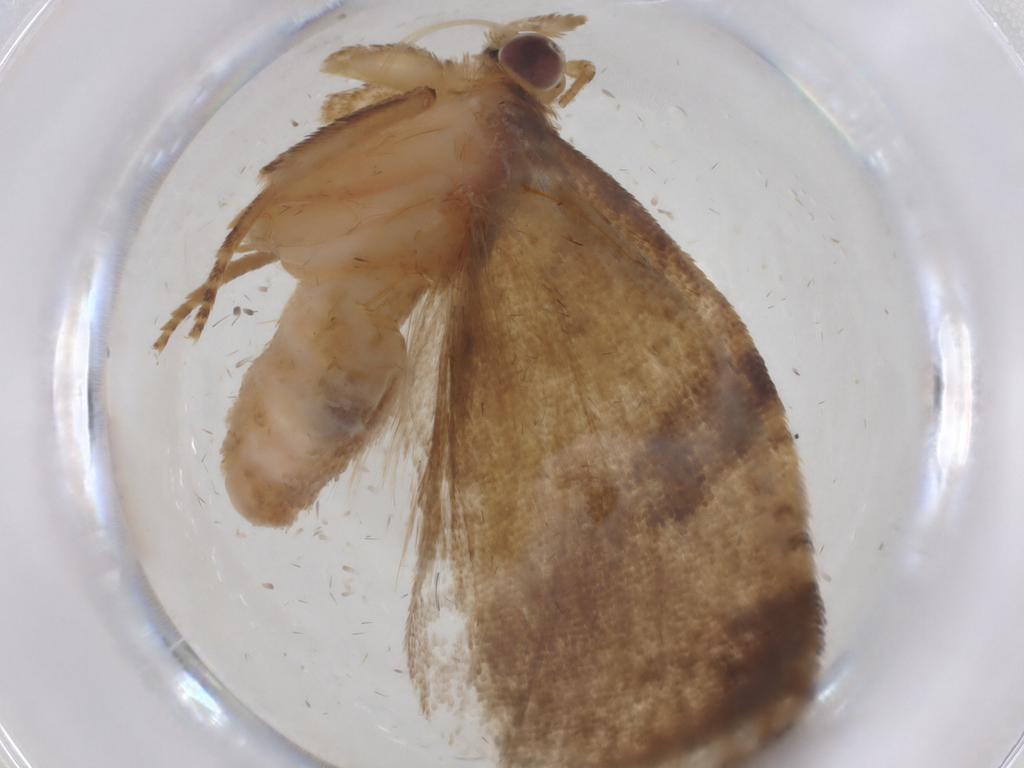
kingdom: Animalia
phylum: Arthropoda
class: Insecta
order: Lepidoptera
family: Tortricidae
